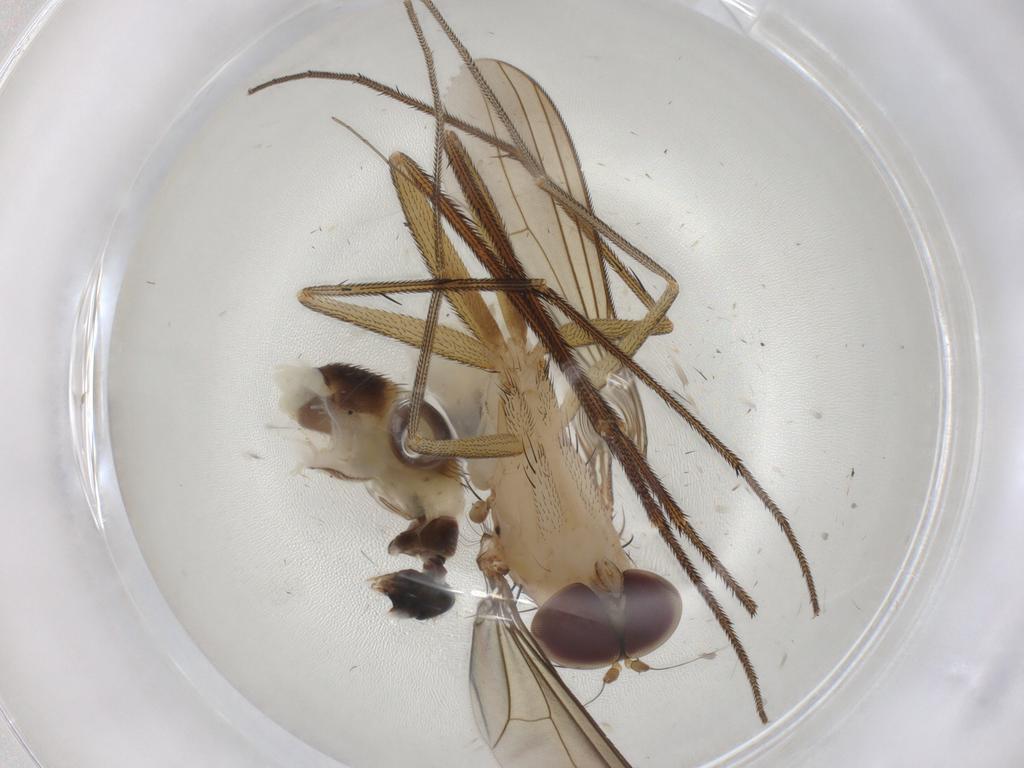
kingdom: Animalia
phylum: Arthropoda
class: Insecta
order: Diptera
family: Dolichopodidae
